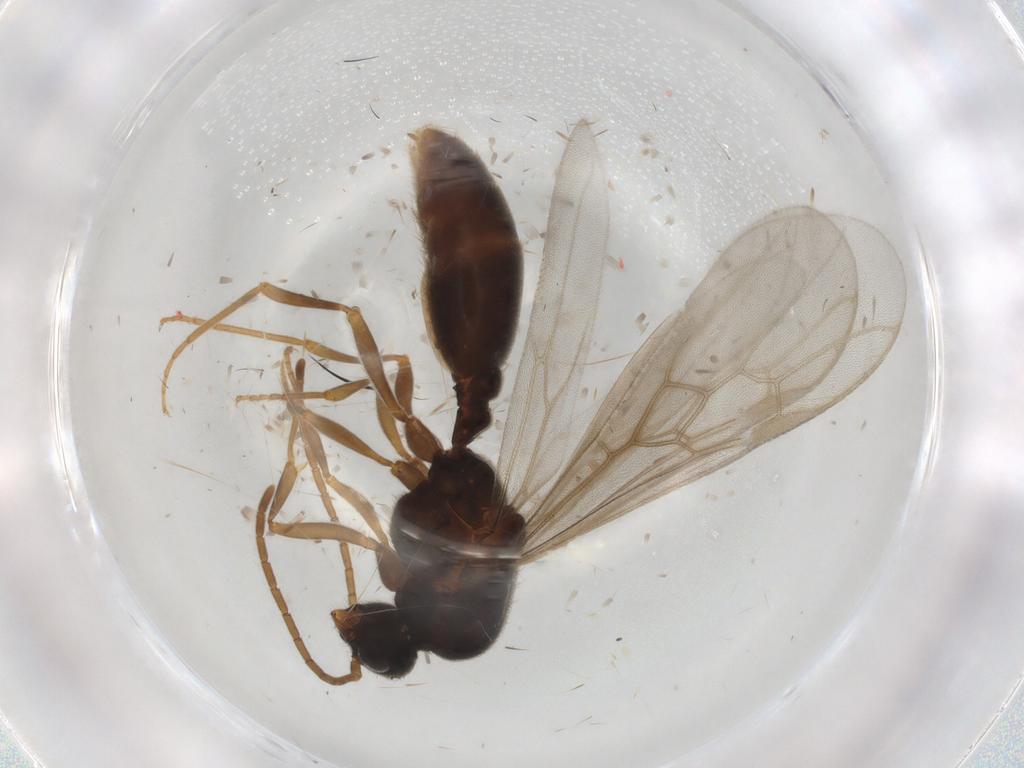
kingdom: Animalia
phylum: Arthropoda
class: Insecta
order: Hymenoptera
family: Formicidae
